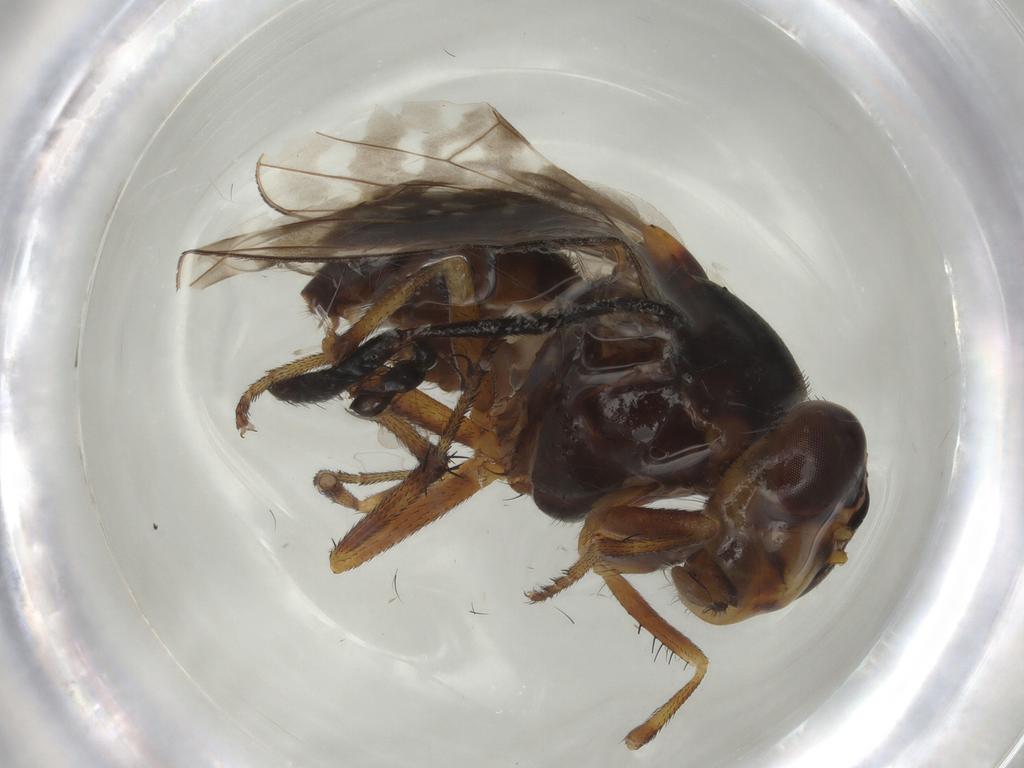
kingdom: Animalia
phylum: Arthropoda
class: Insecta
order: Diptera
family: Anthomyiidae
